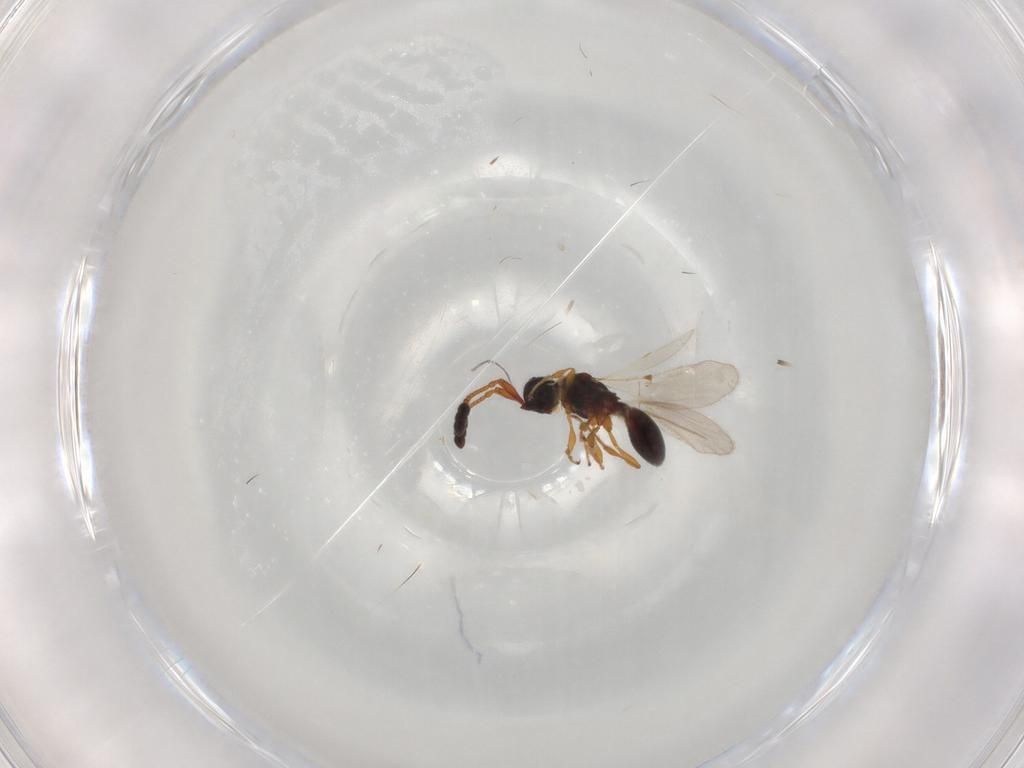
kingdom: Animalia
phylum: Arthropoda
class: Insecta
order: Hymenoptera
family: Diapriidae
